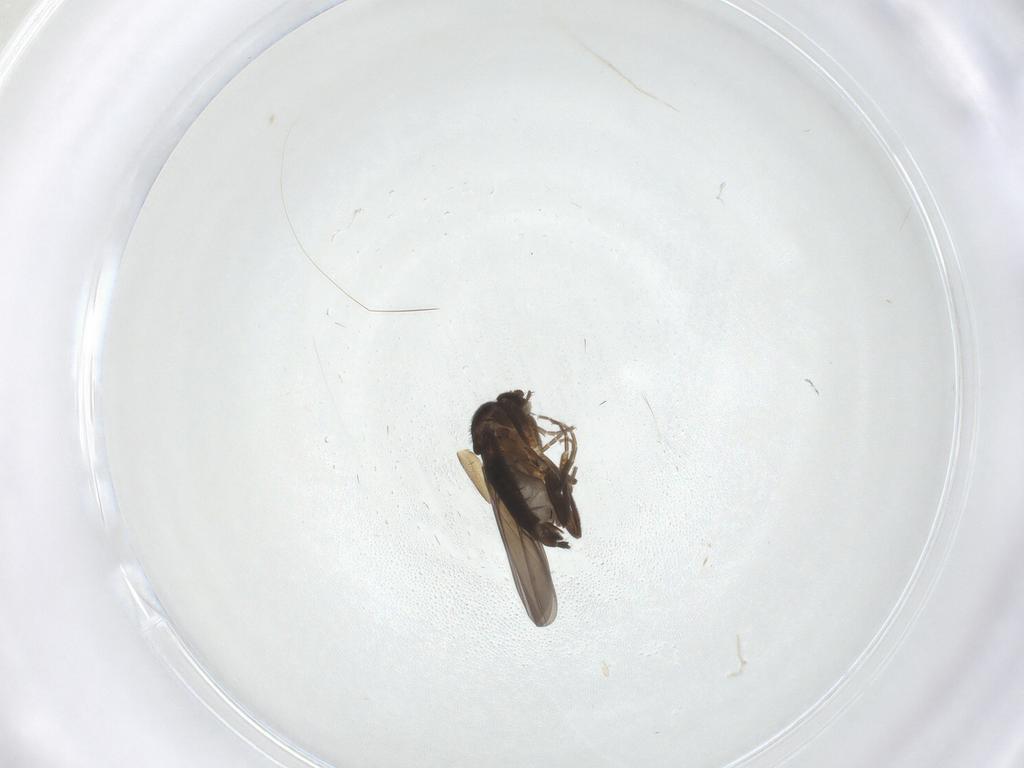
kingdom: Animalia
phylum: Arthropoda
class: Insecta
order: Diptera
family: Phoridae
